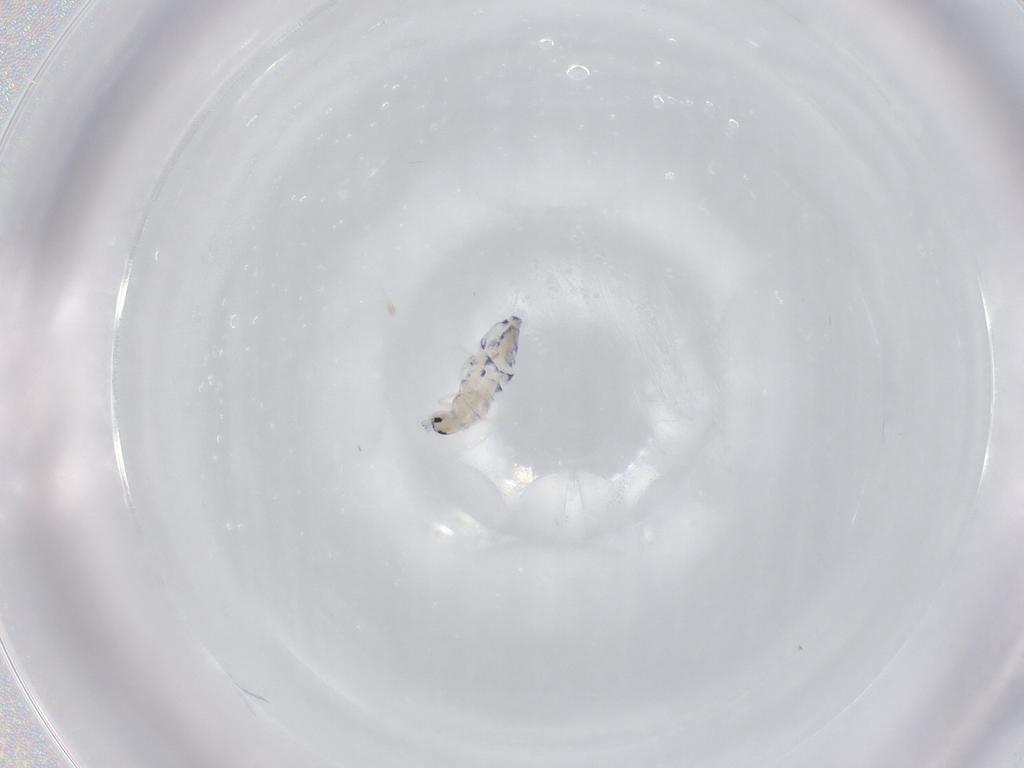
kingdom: Animalia
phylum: Arthropoda
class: Collembola
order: Entomobryomorpha
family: Entomobryidae
